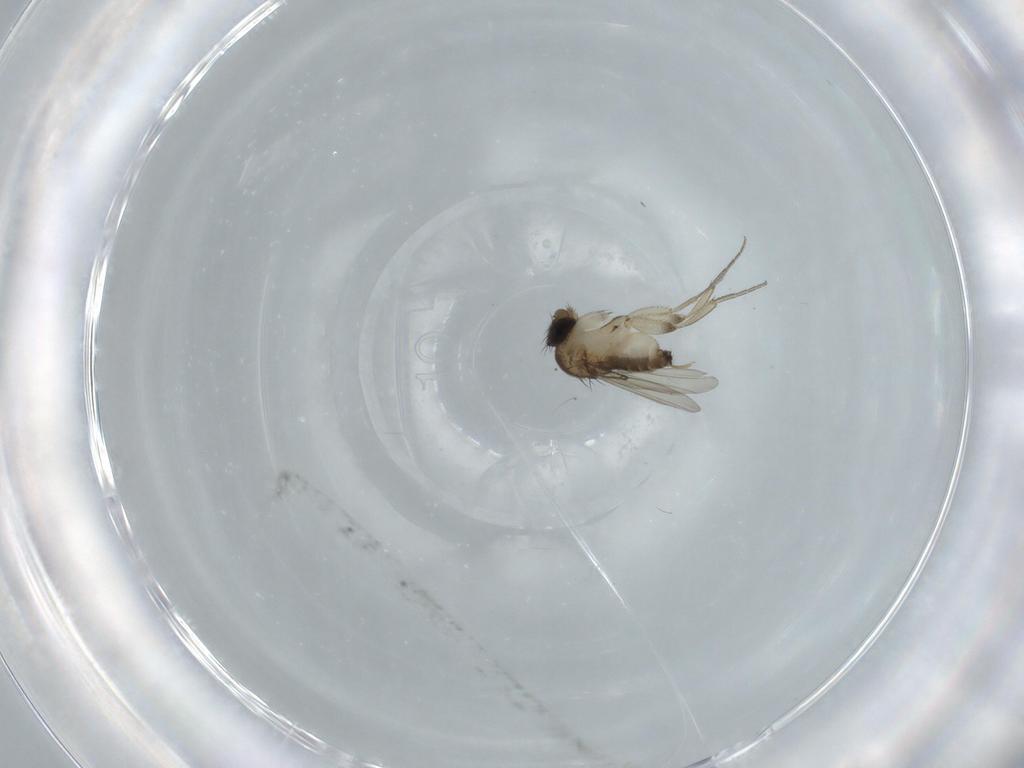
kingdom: Animalia
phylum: Arthropoda
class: Insecta
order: Diptera
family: Phoridae
